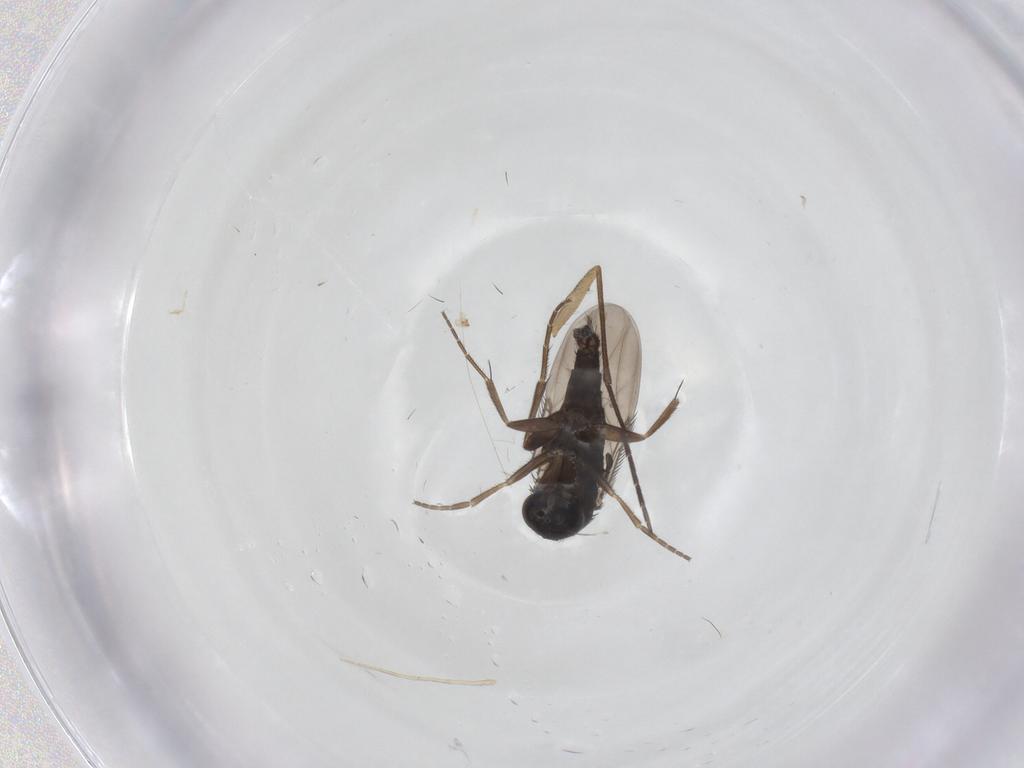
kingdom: Animalia
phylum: Arthropoda
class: Insecta
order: Diptera
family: Phoridae
